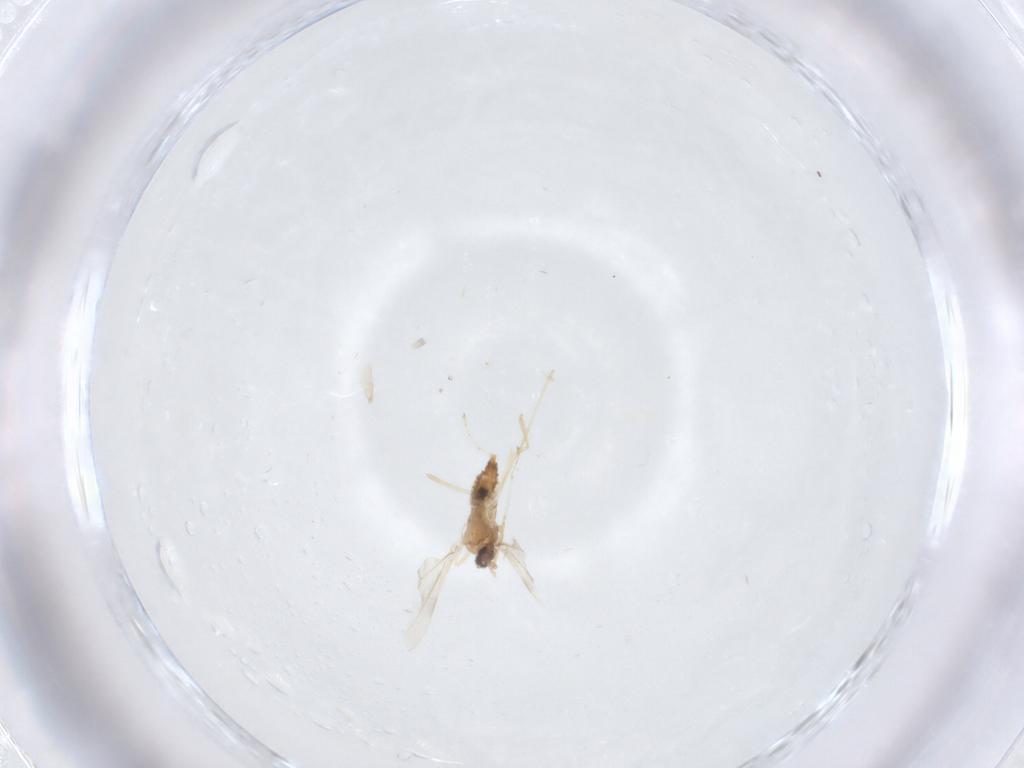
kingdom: Animalia
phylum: Arthropoda
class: Insecta
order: Diptera
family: Cecidomyiidae
